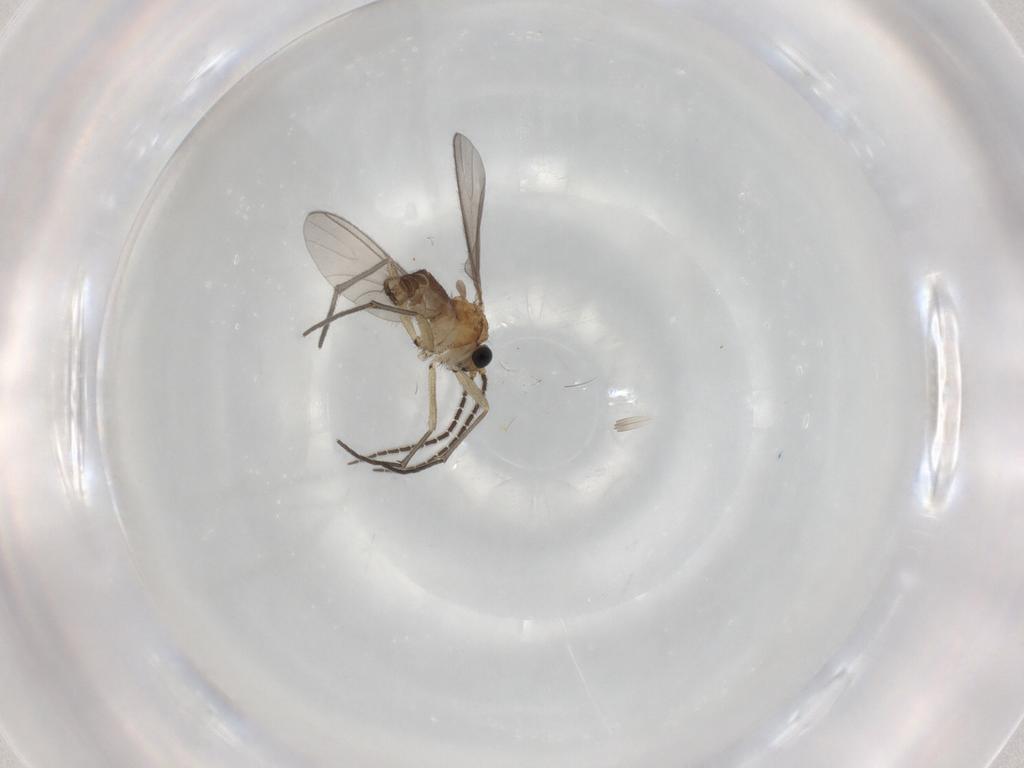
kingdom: Animalia
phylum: Arthropoda
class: Insecta
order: Diptera
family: Sciaridae
